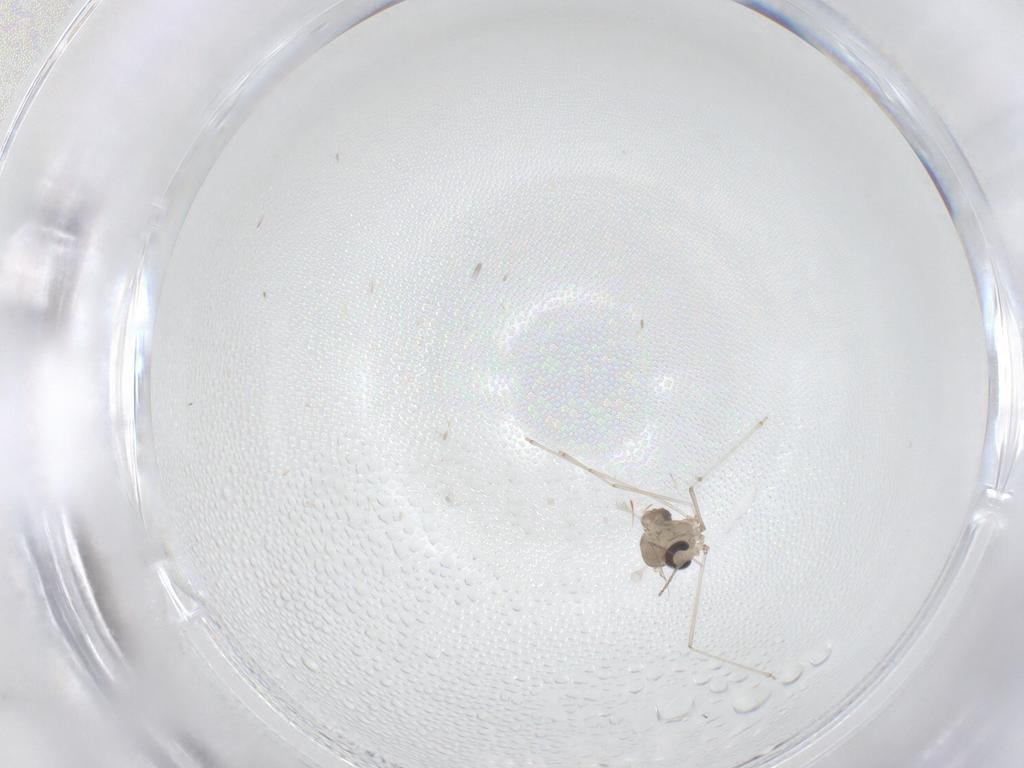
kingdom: Animalia
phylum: Arthropoda
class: Insecta
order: Diptera
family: Cecidomyiidae
